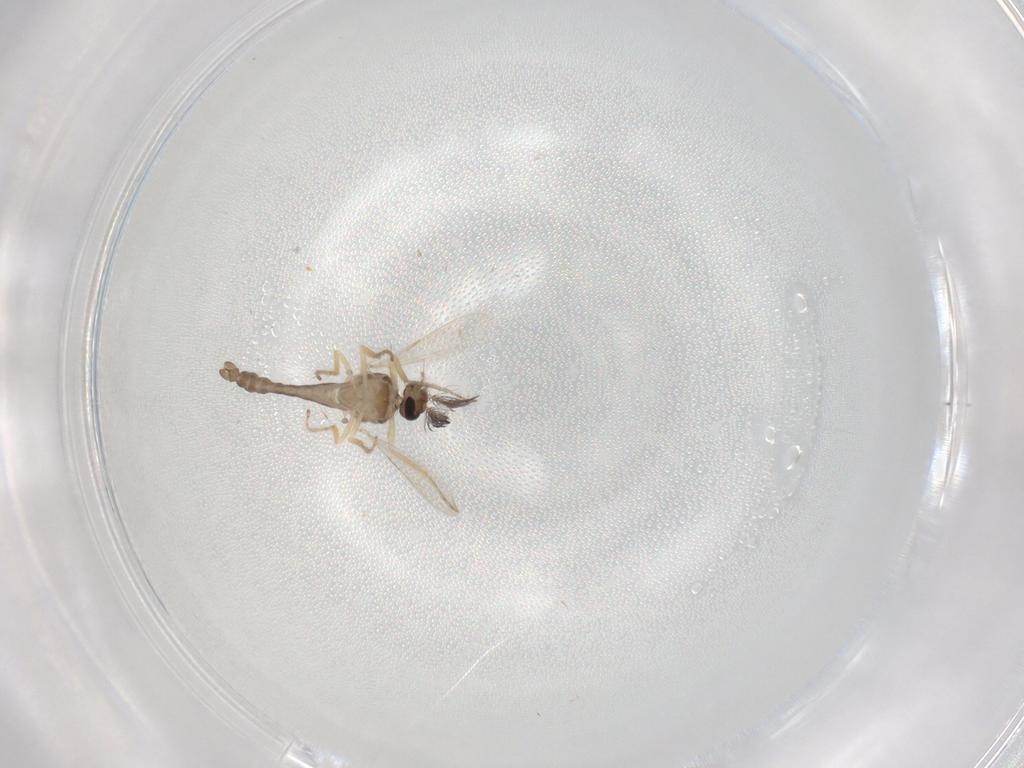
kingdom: Animalia
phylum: Arthropoda
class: Insecta
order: Diptera
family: Ceratopogonidae
